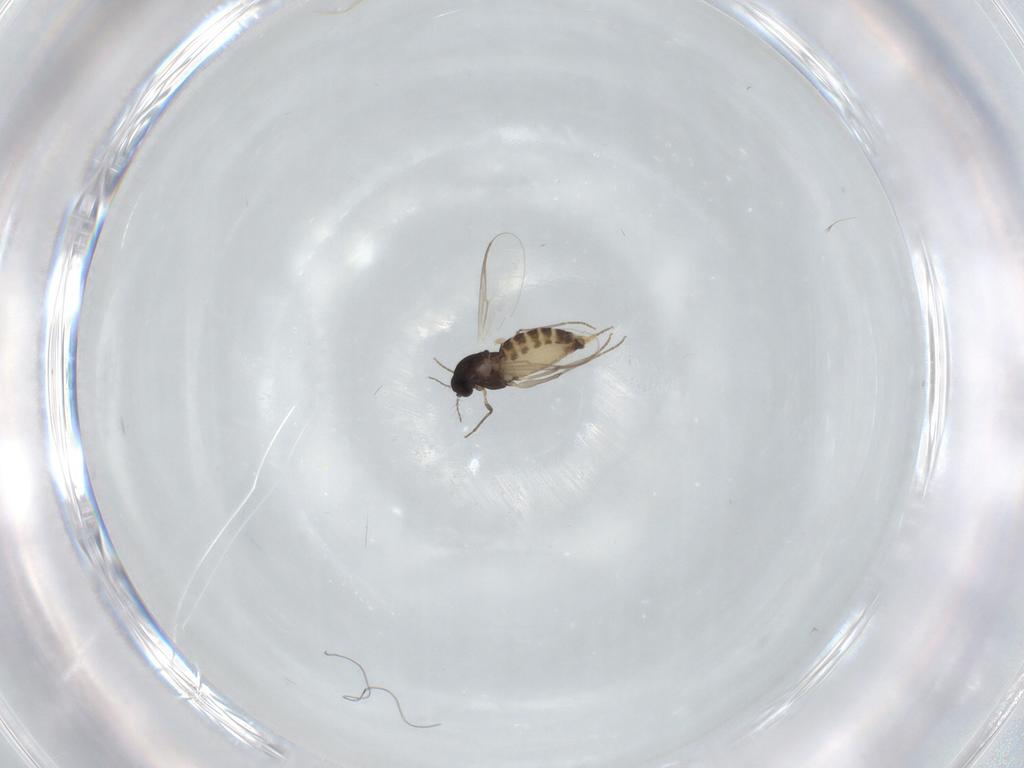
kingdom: Animalia
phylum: Arthropoda
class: Insecta
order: Diptera
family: Chironomidae
